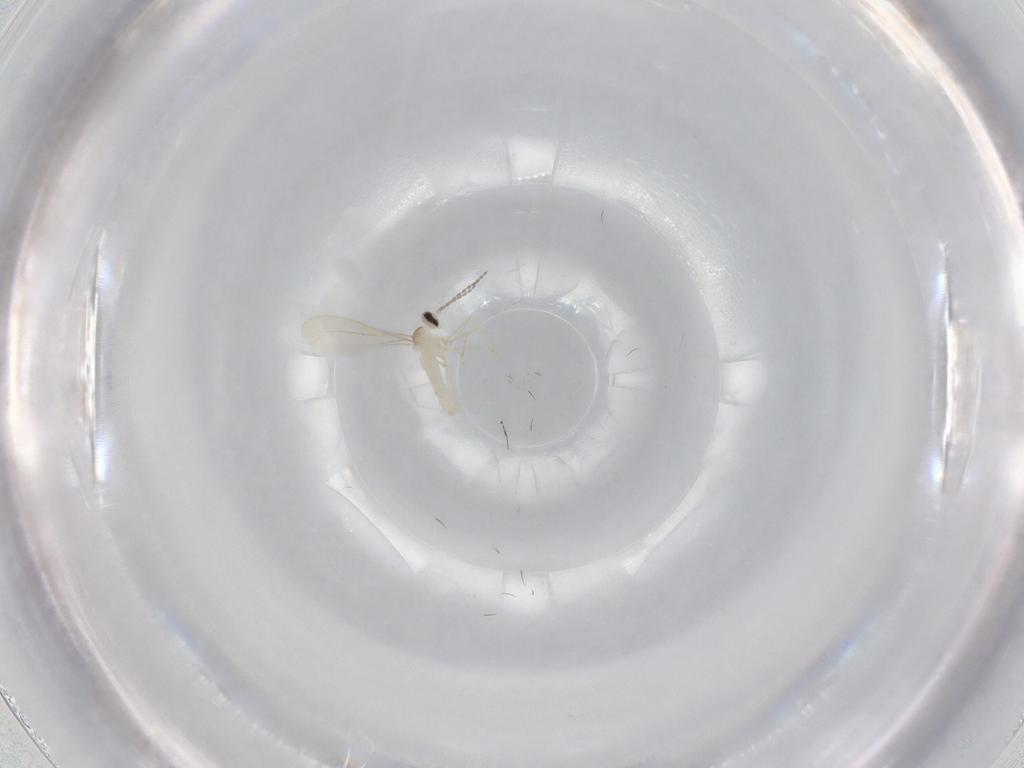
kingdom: Animalia
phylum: Arthropoda
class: Insecta
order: Diptera
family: Cecidomyiidae
